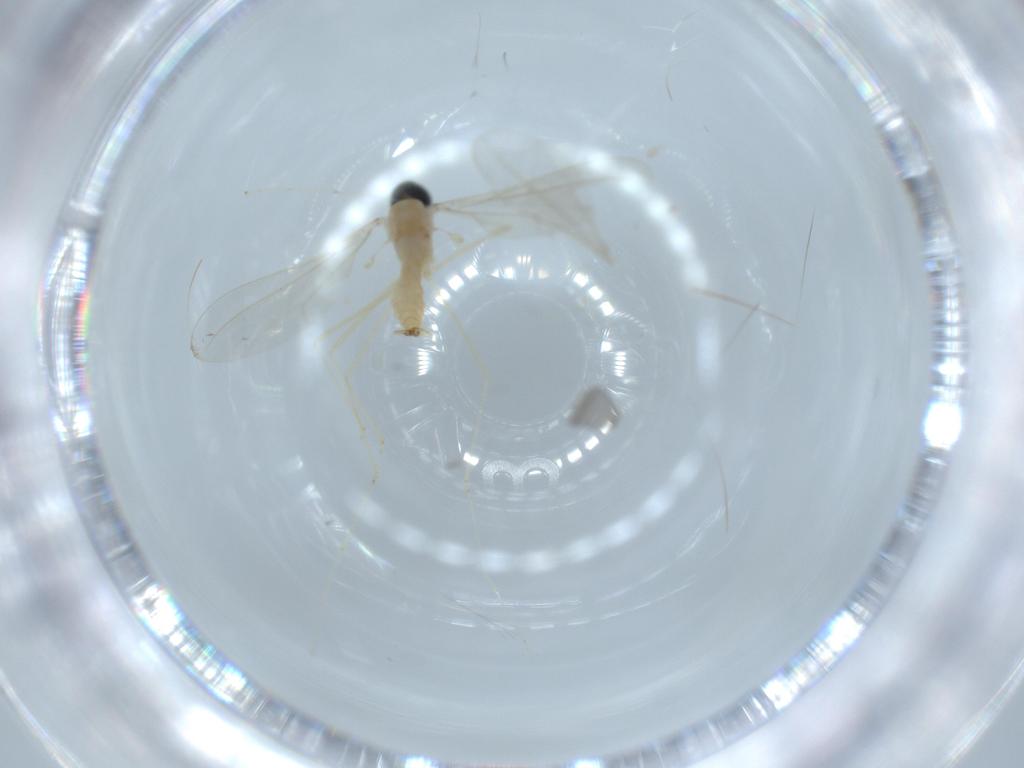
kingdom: Animalia
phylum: Arthropoda
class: Insecta
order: Diptera
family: Cecidomyiidae
